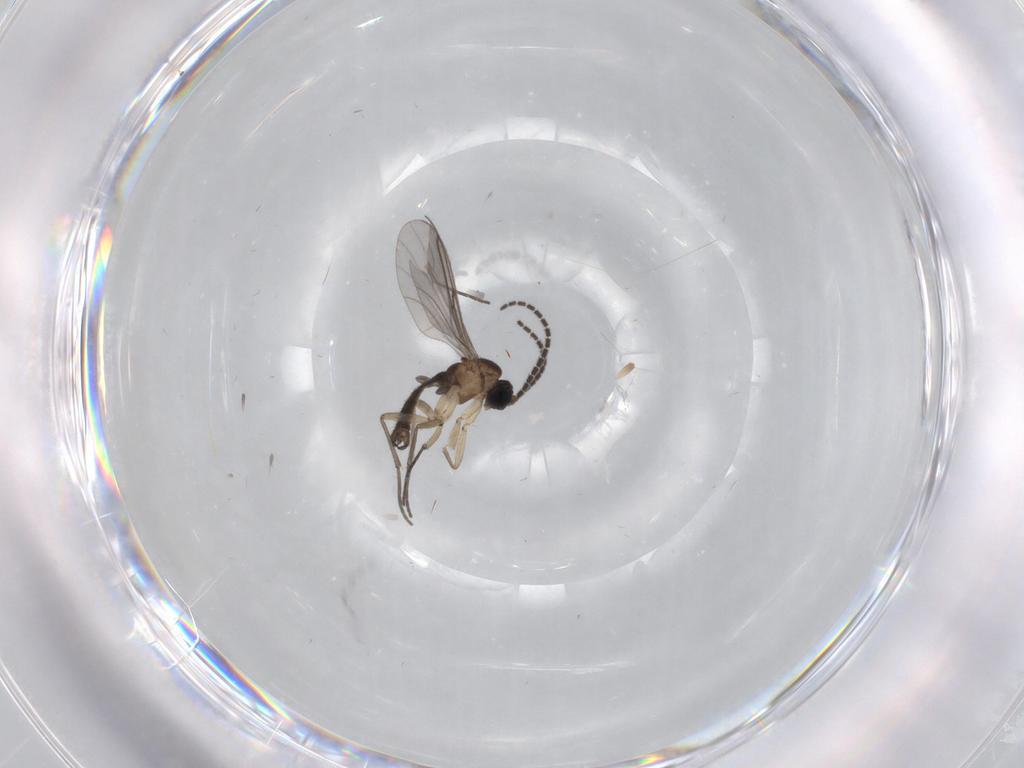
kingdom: Animalia
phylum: Arthropoda
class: Insecta
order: Diptera
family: Sciaridae
